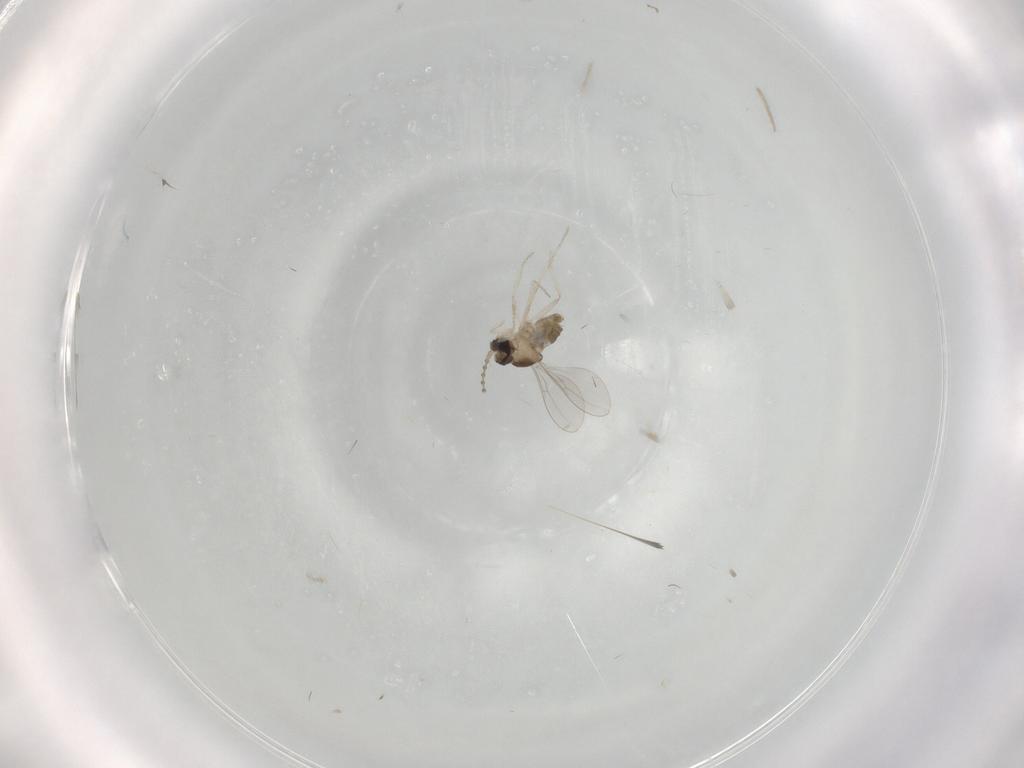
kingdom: Animalia
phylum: Arthropoda
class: Insecta
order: Diptera
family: Cecidomyiidae
